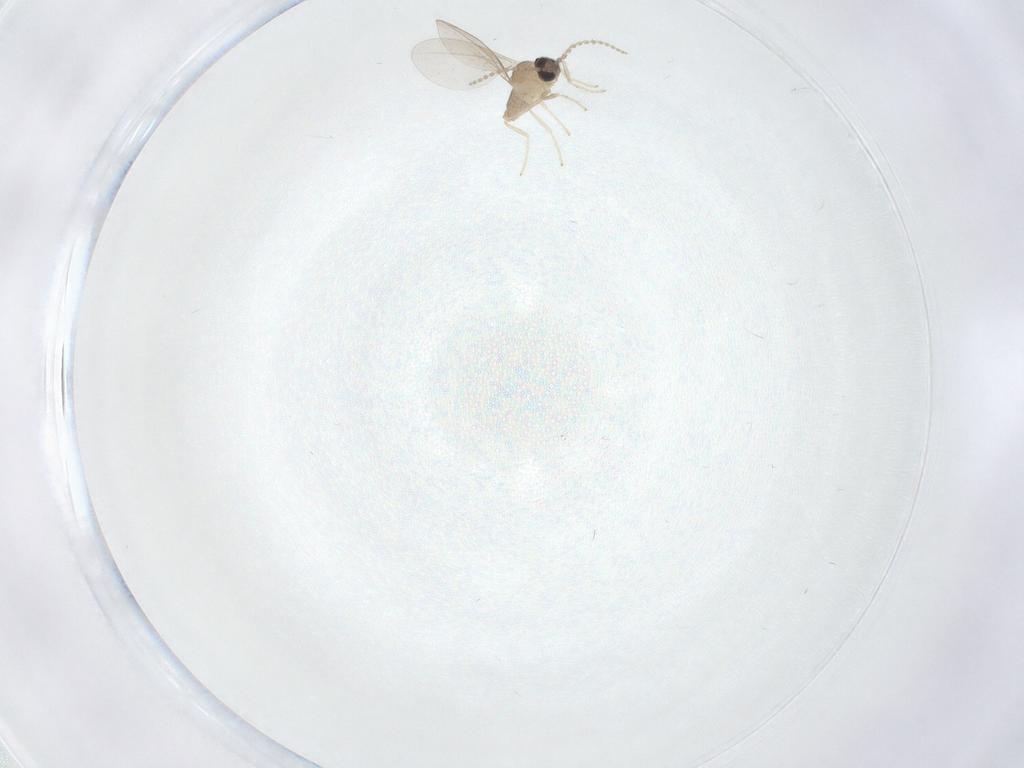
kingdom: Animalia
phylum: Arthropoda
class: Insecta
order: Diptera
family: Cecidomyiidae
